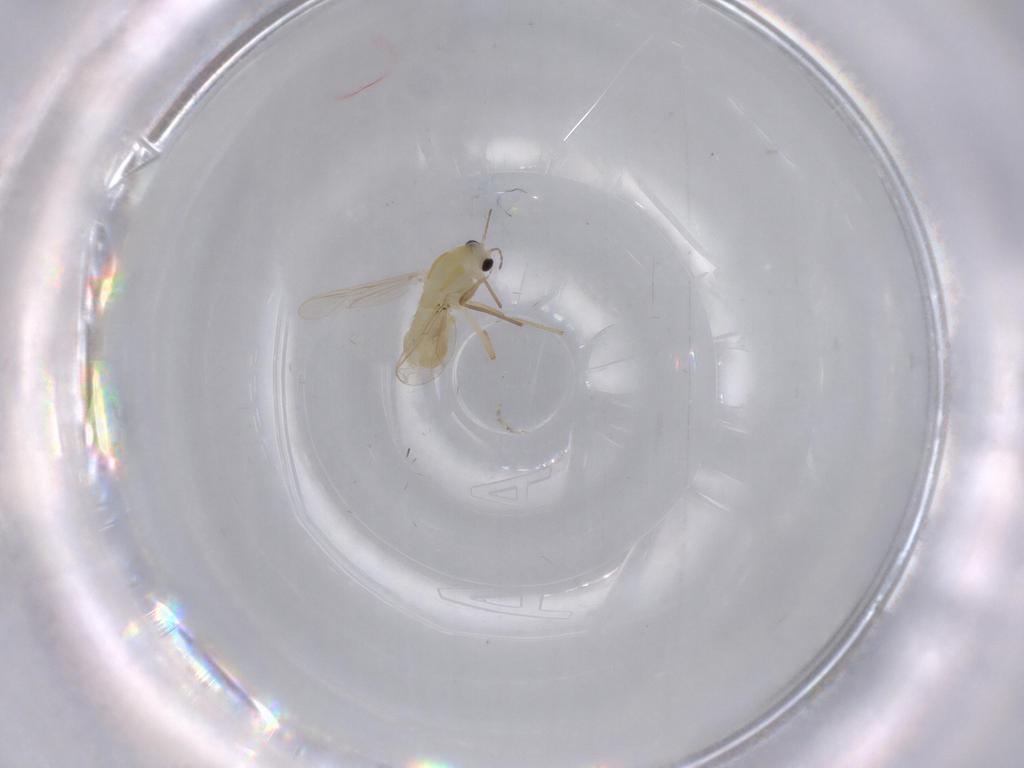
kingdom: Animalia
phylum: Arthropoda
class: Insecta
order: Diptera
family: Chironomidae
